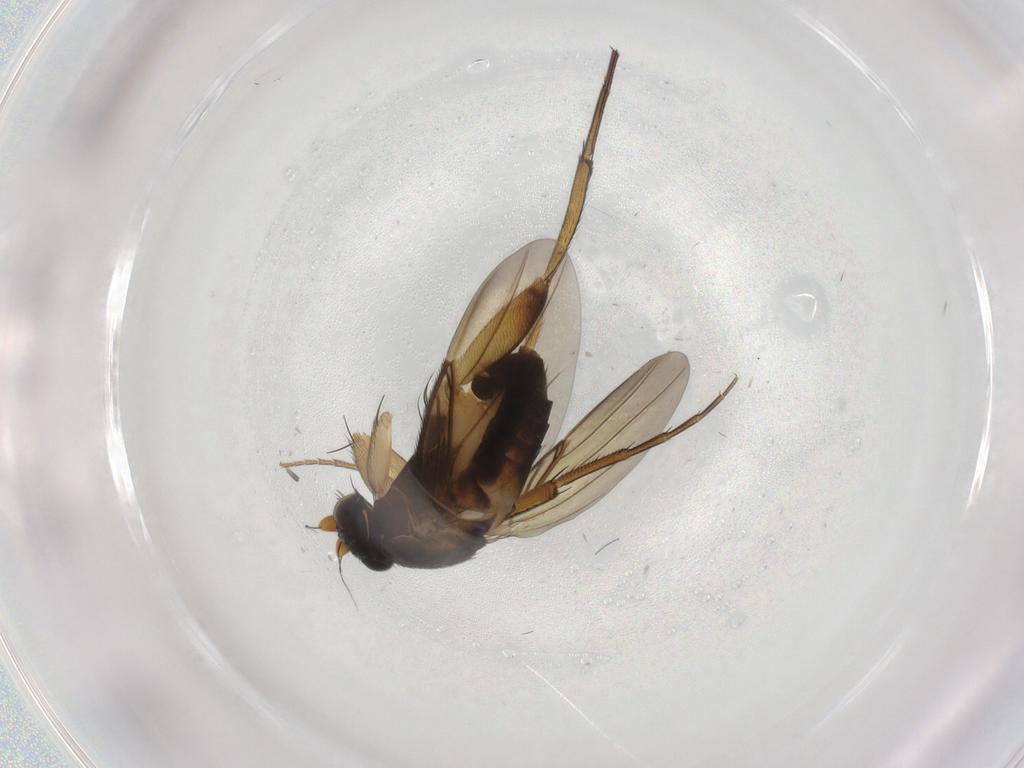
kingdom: Animalia
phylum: Arthropoda
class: Insecta
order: Diptera
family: Phoridae
